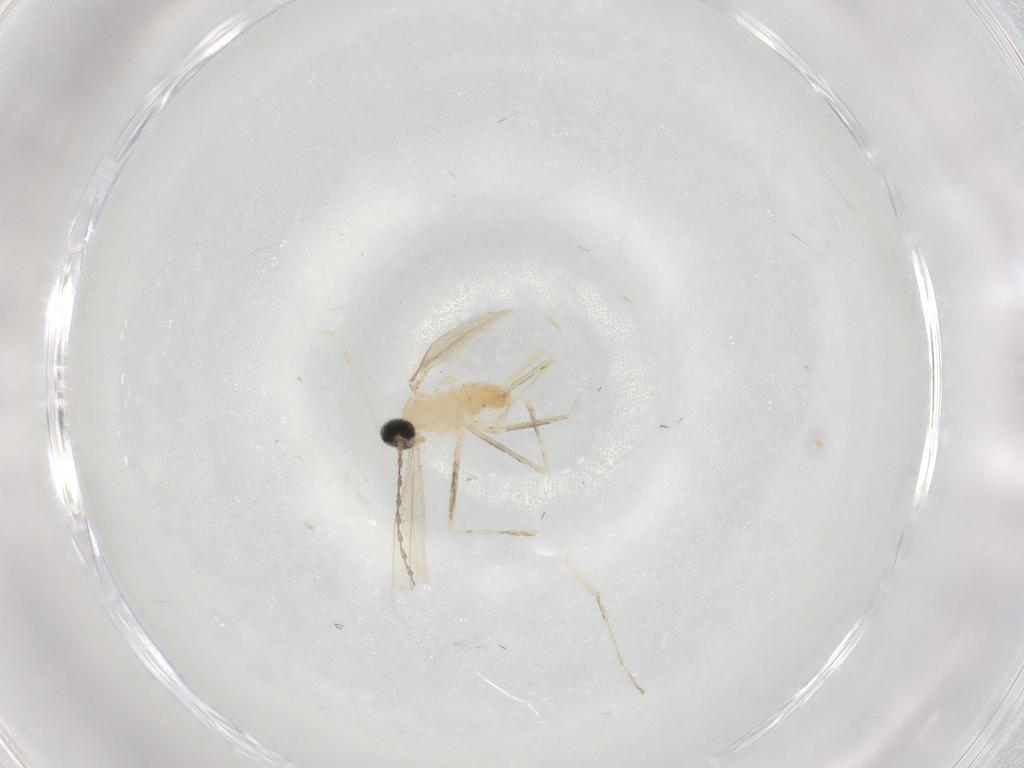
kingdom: Animalia
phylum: Arthropoda
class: Insecta
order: Diptera
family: Cecidomyiidae
